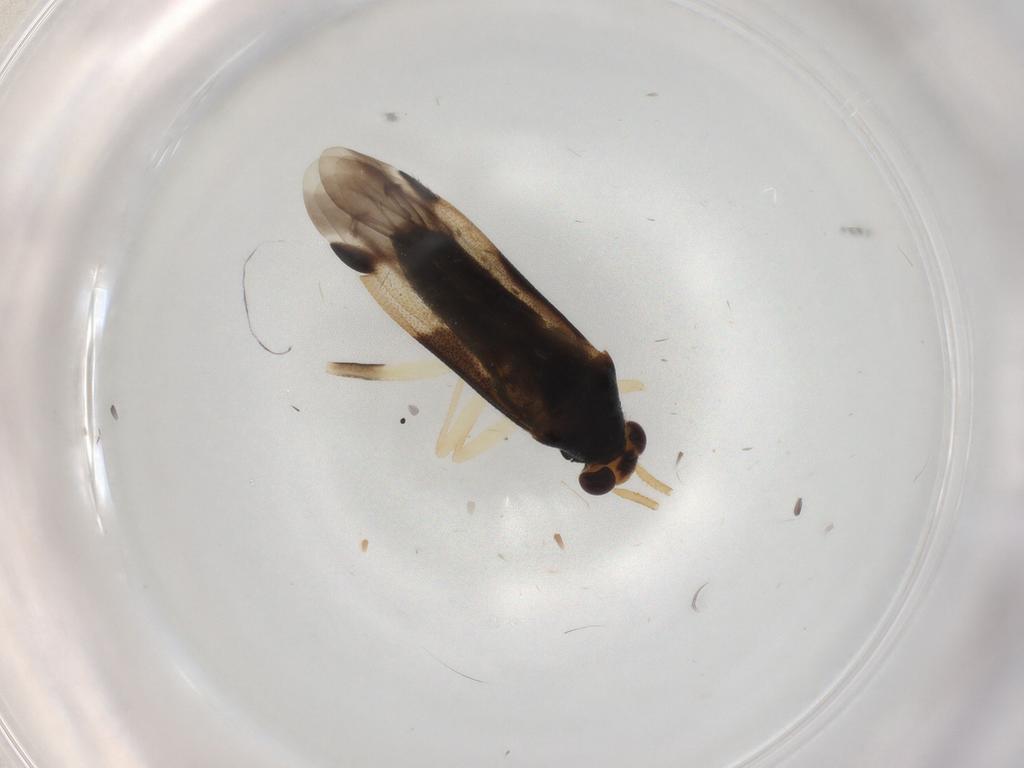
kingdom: Animalia
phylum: Arthropoda
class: Insecta
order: Hemiptera
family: Miridae
